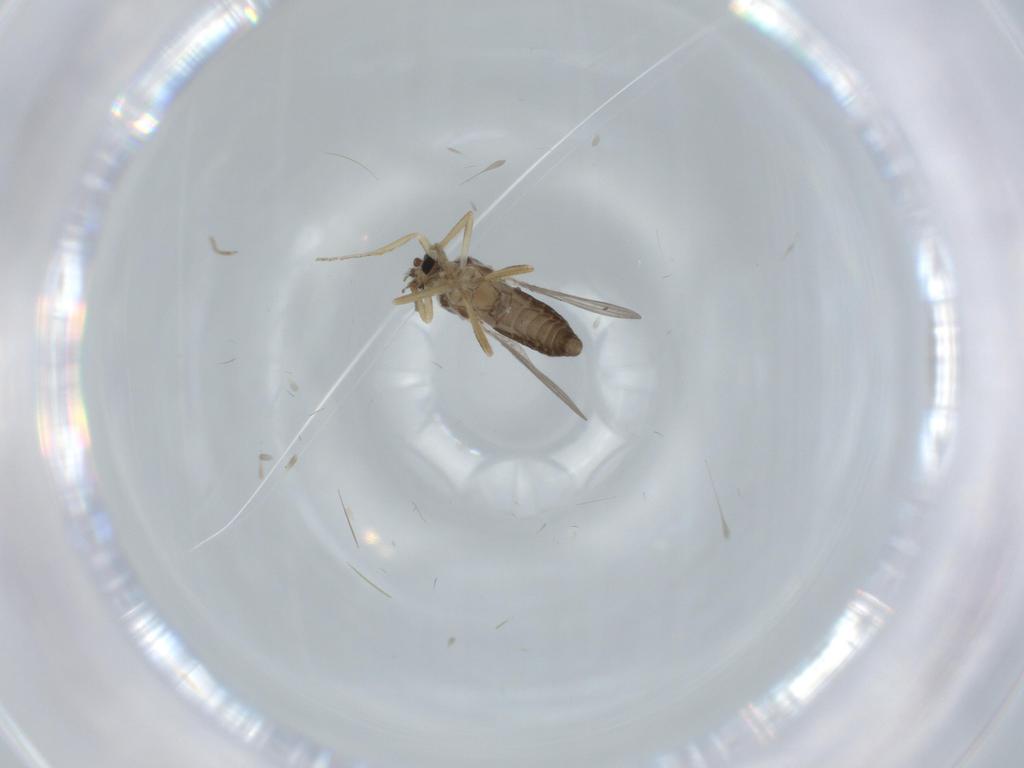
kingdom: Animalia
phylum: Arthropoda
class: Insecta
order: Diptera
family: Ceratopogonidae
